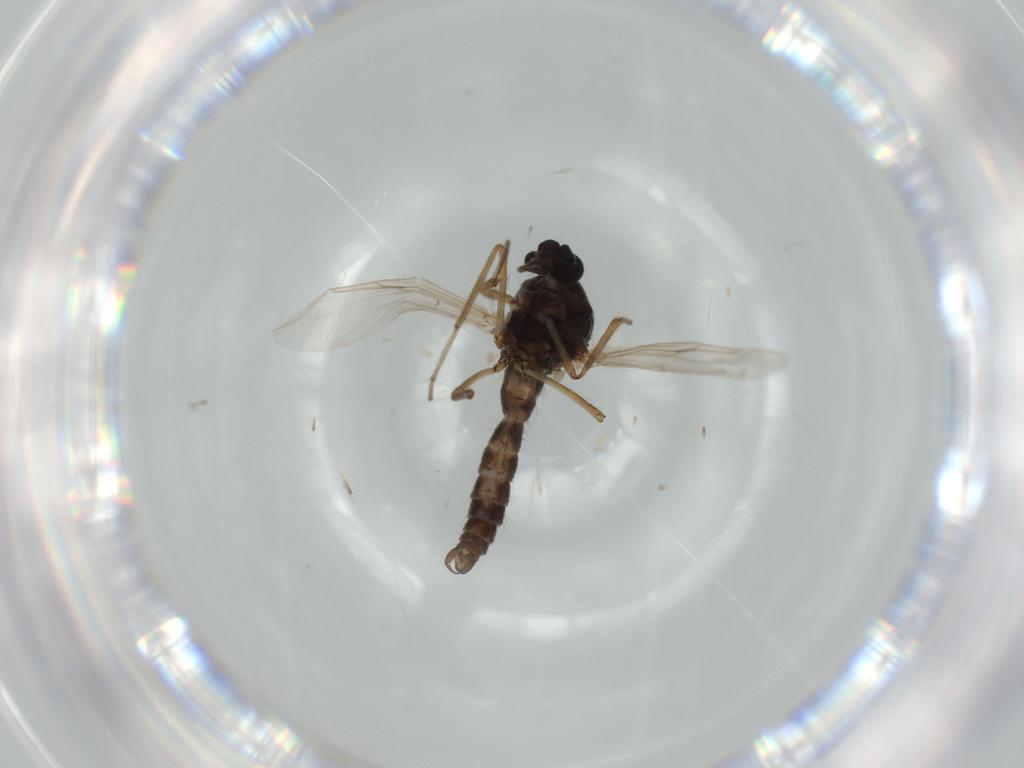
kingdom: Animalia
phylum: Arthropoda
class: Insecta
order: Diptera
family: Ceratopogonidae
